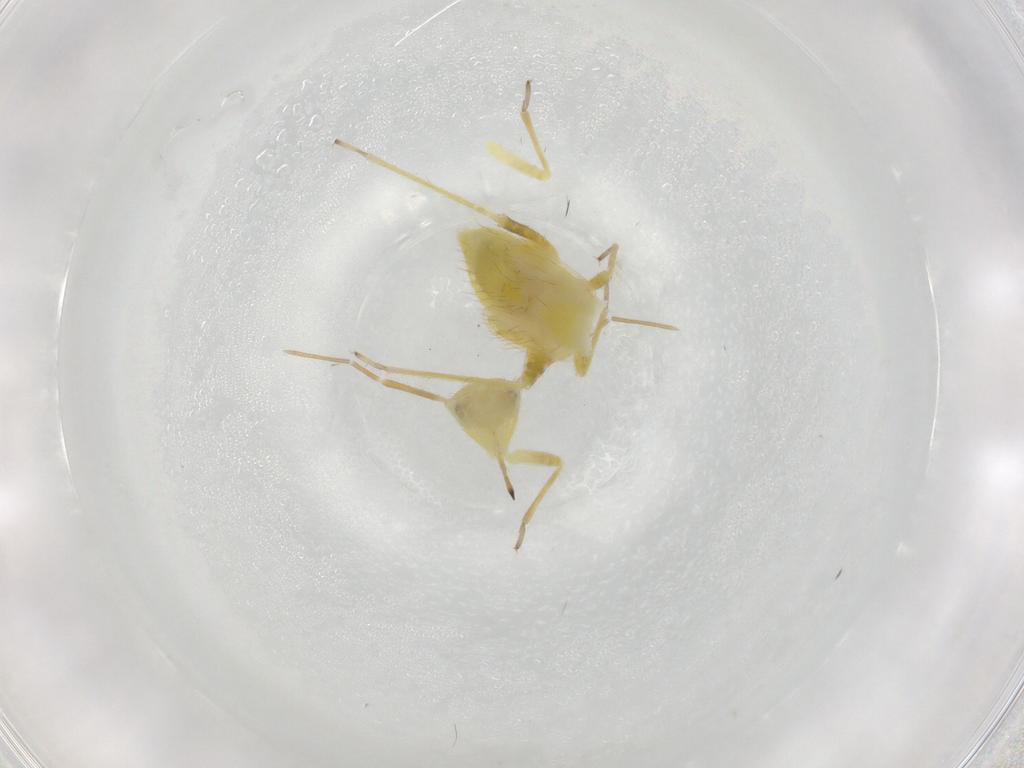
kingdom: Animalia
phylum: Arthropoda
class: Insecta
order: Hemiptera
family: Miridae
